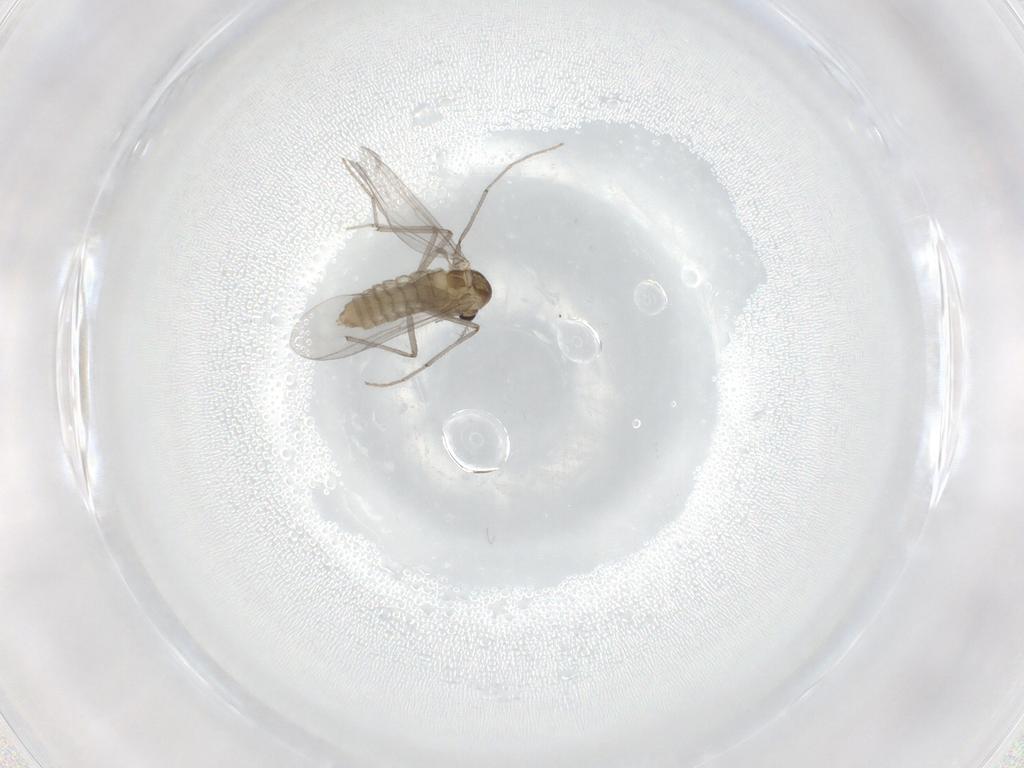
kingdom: Animalia
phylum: Arthropoda
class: Insecta
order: Diptera
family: Chironomidae
